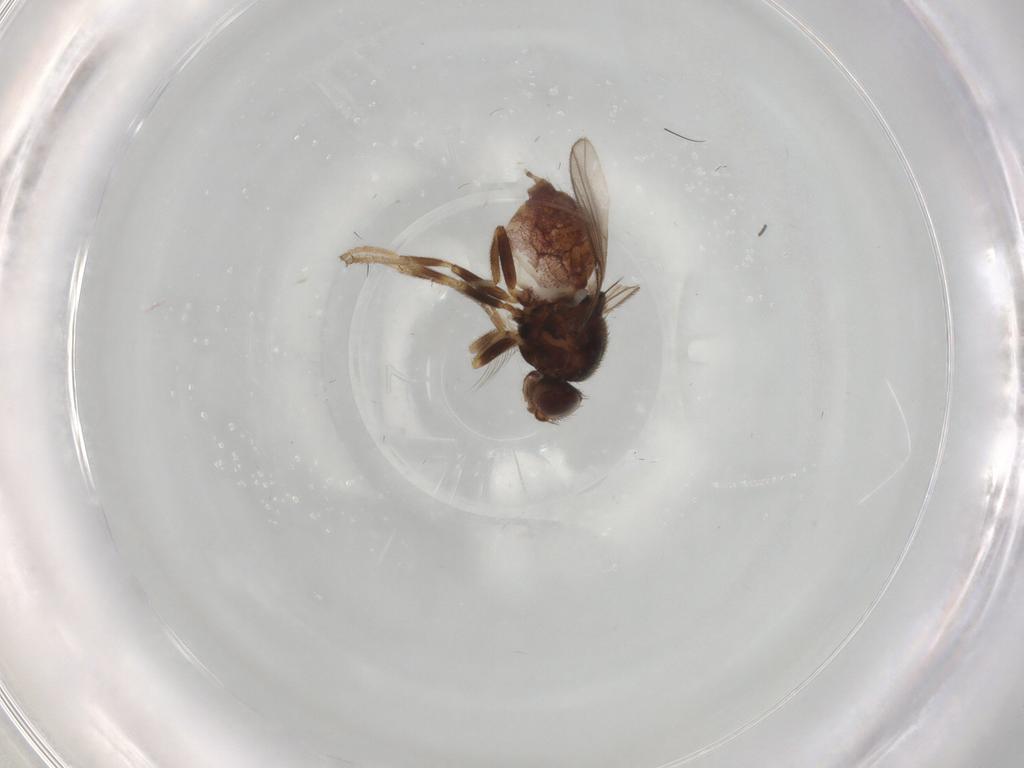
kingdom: Animalia
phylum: Arthropoda
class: Insecta
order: Diptera
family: Chloropidae
